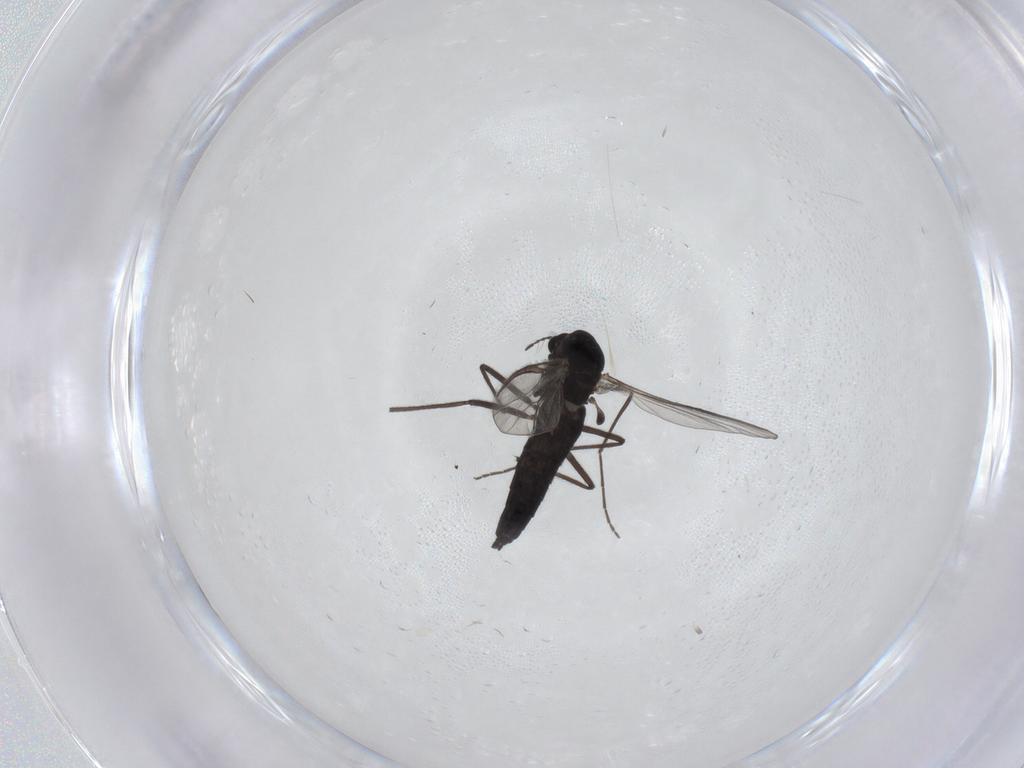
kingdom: Animalia
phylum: Arthropoda
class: Insecta
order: Diptera
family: Chironomidae
